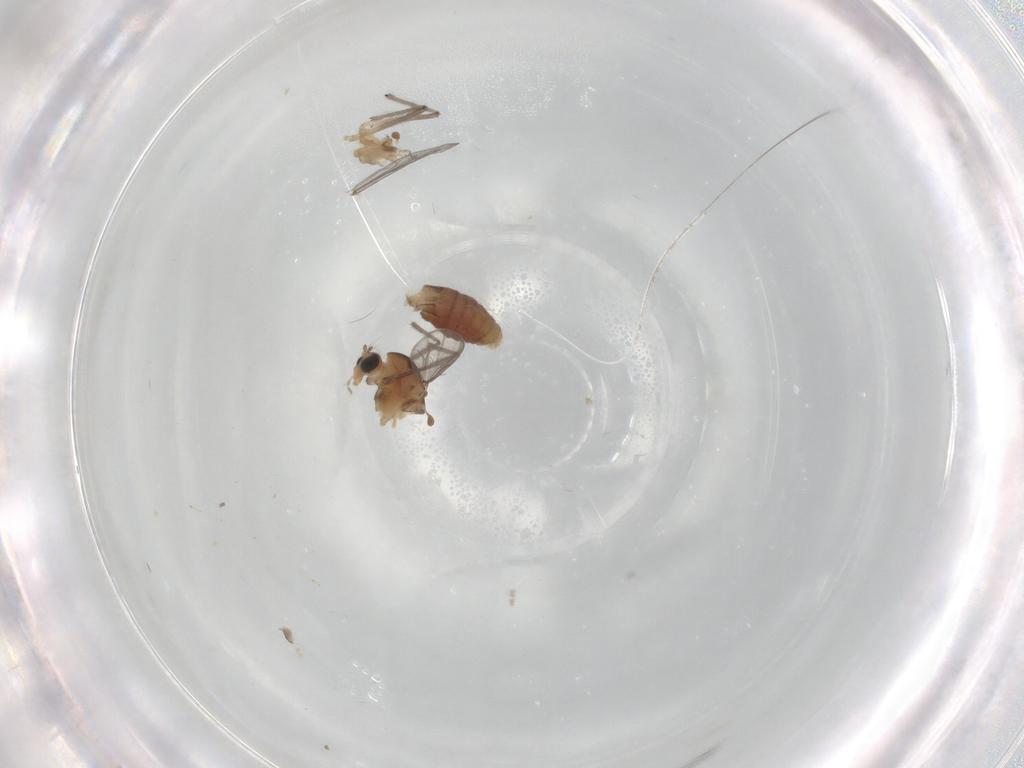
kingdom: Animalia
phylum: Arthropoda
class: Insecta
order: Diptera
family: Chironomidae
